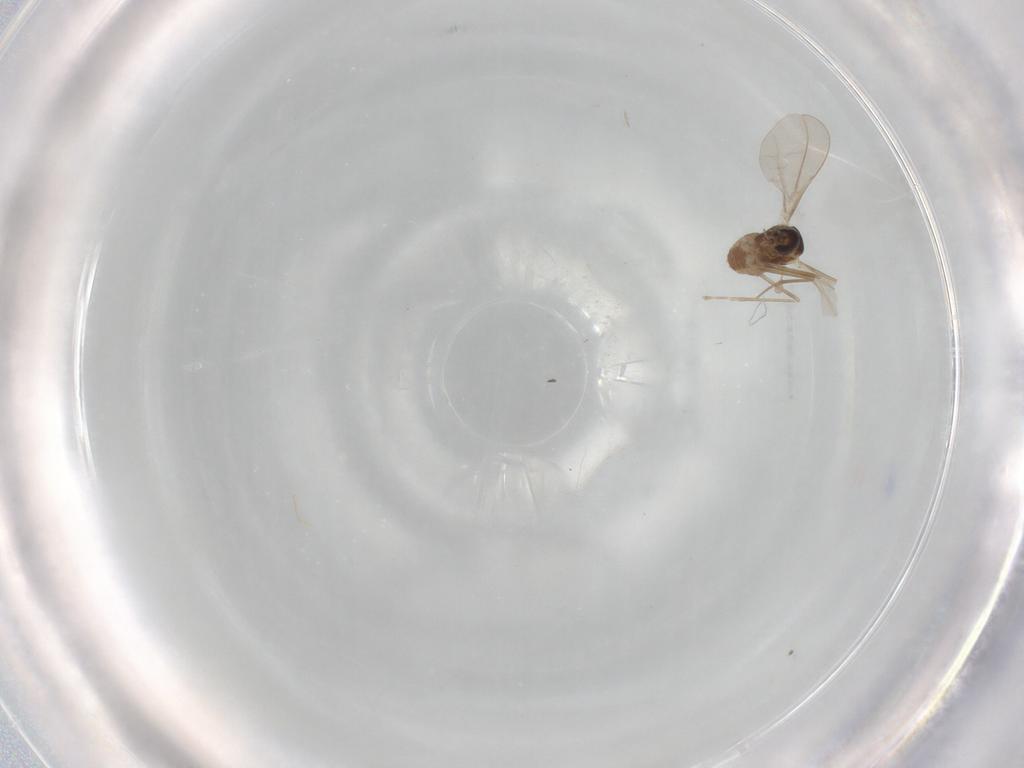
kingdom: Animalia
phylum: Arthropoda
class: Insecta
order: Diptera
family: Cecidomyiidae
